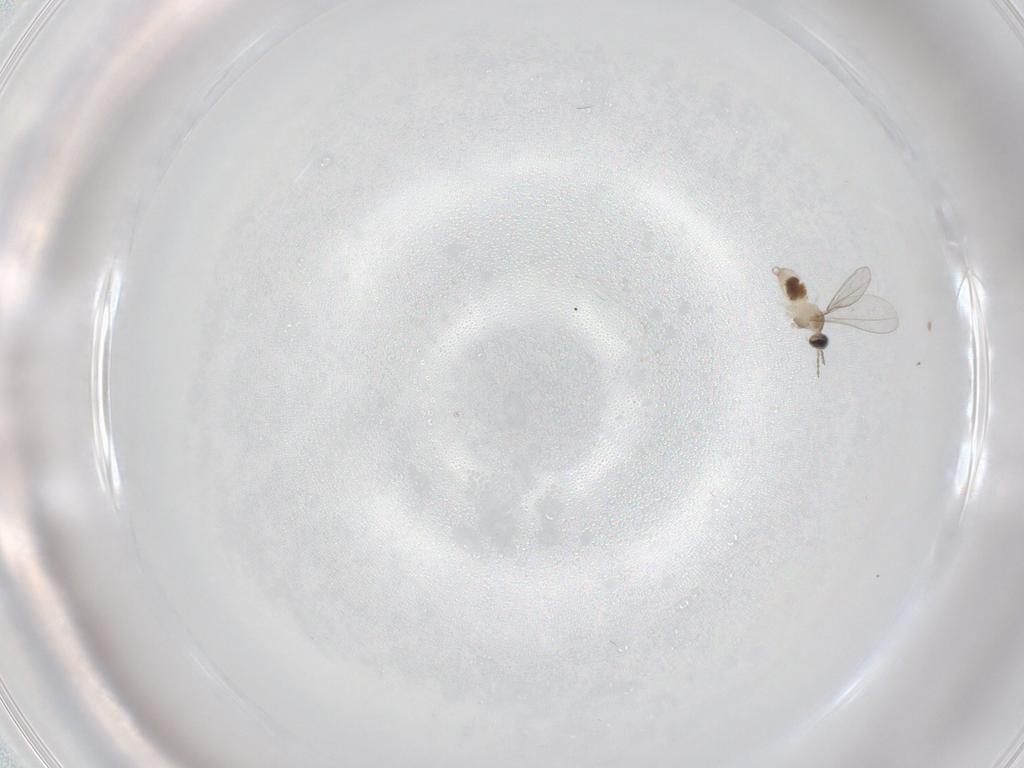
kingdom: Animalia
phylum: Arthropoda
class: Insecta
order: Diptera
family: Cecidomyiidae
